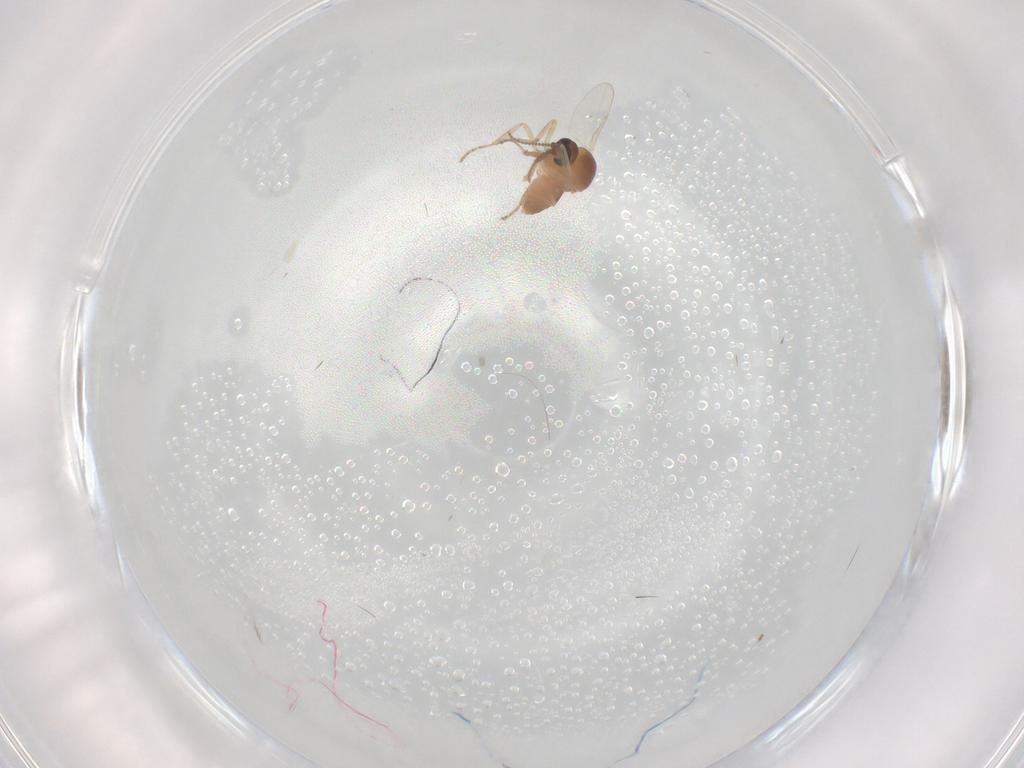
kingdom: Animalia
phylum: Arthropoda
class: Insecta
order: Diptera
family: Ceratopogonidae
